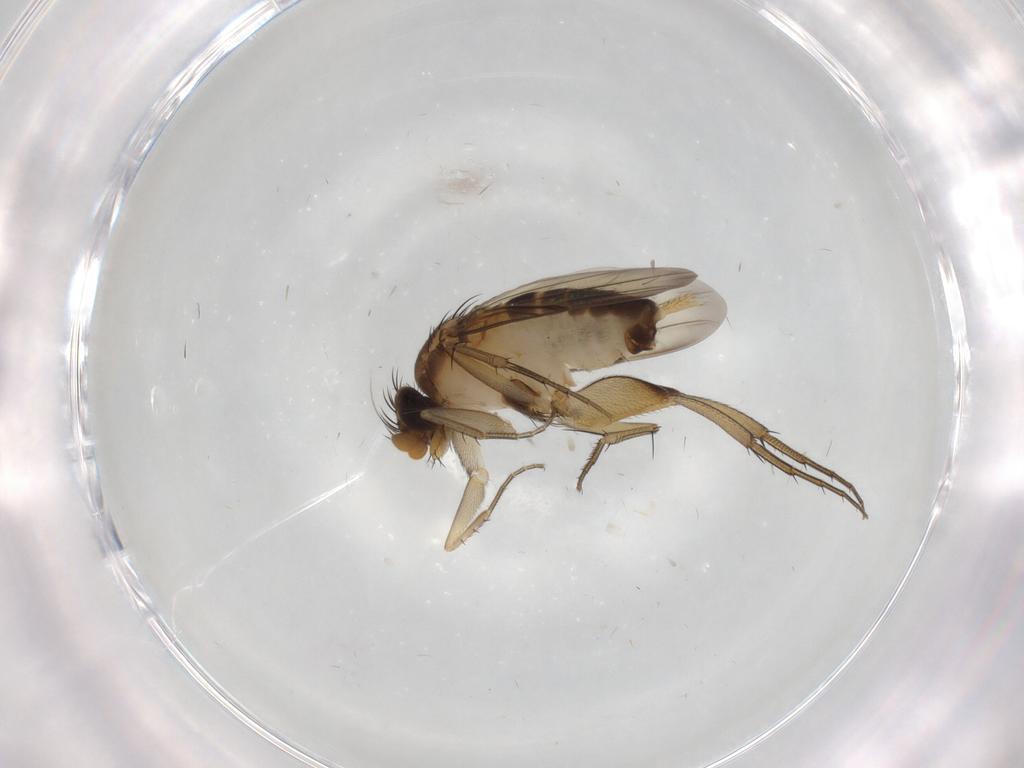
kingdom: Animalia
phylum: Arthropoda
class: Insecta
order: Diptera
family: Phoridae
